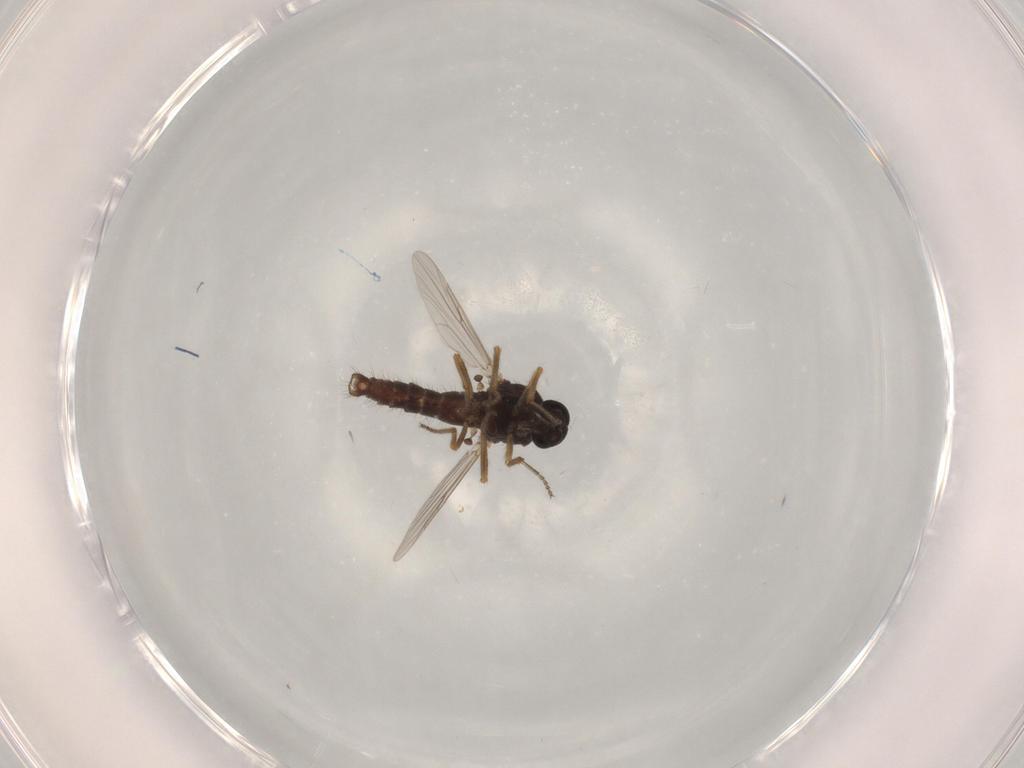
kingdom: Animalia
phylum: Arthropoda
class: Insecta
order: Diptera
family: Ceratopogonidae
